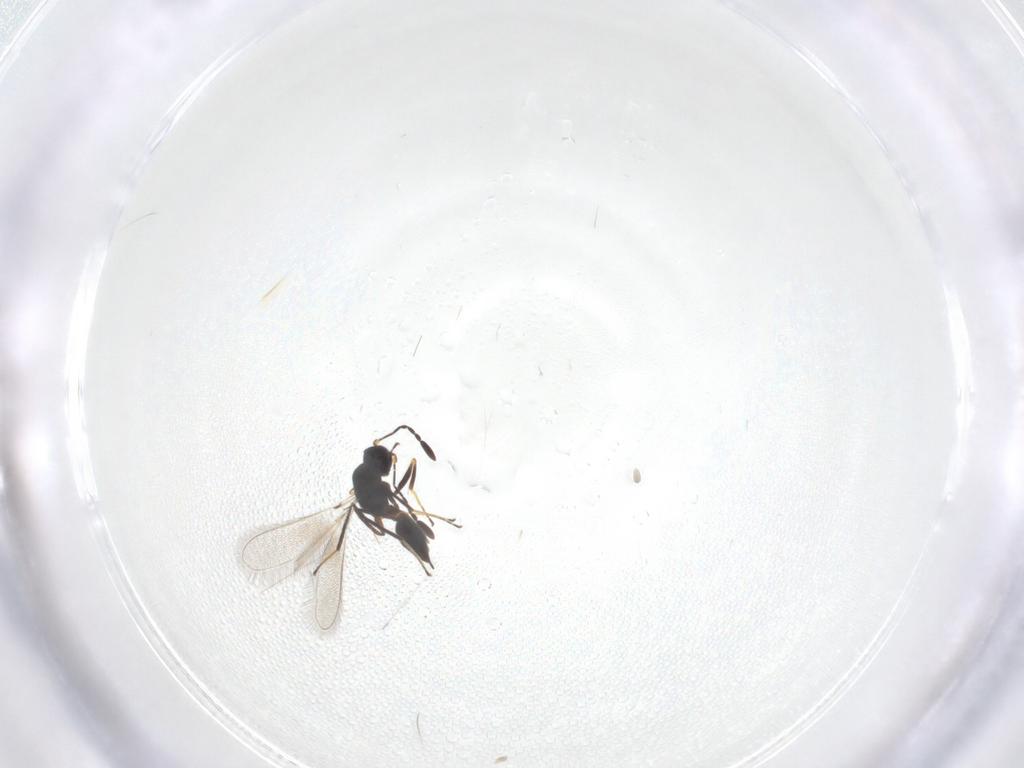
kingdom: Animalia
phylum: Arthropoda
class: Insecta
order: Hymenoptera
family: Mymaridae
